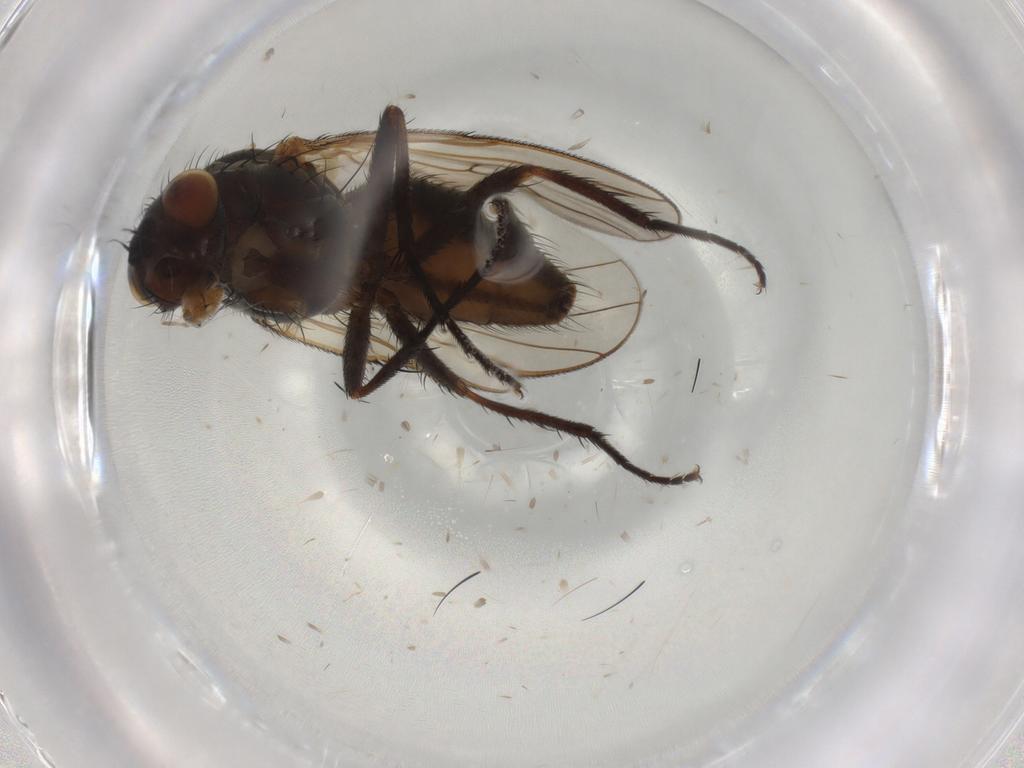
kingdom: Animalia
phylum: Arthropoda
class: Insecta
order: Diptera
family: Anthomyiidae
